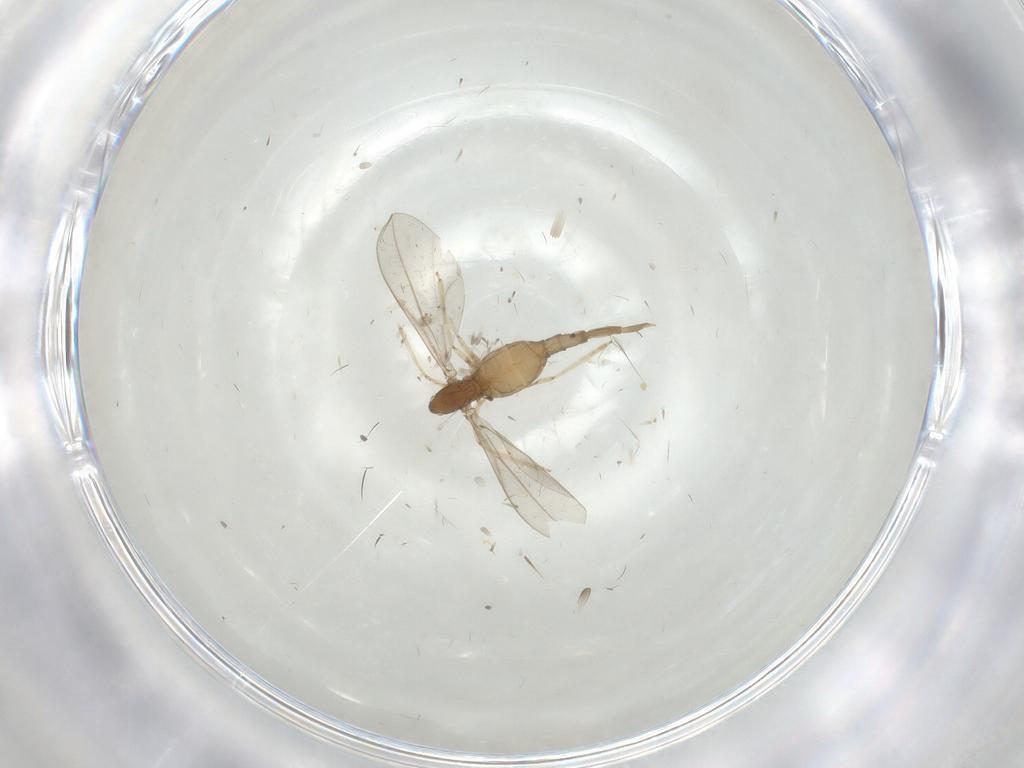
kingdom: Animalia
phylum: Arthropoda
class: Insecta
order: Diptera
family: Cecidomyiidae
